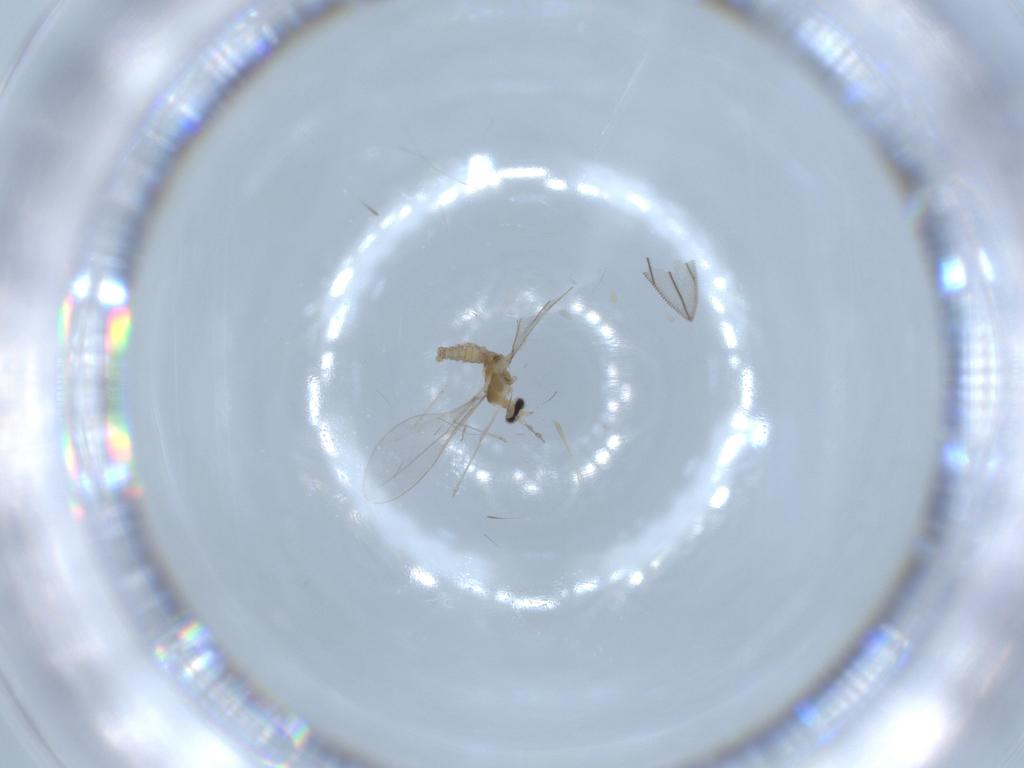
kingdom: Animalia
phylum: Arthropoda
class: Insecta
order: Diptera
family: Cecidomyiidae
